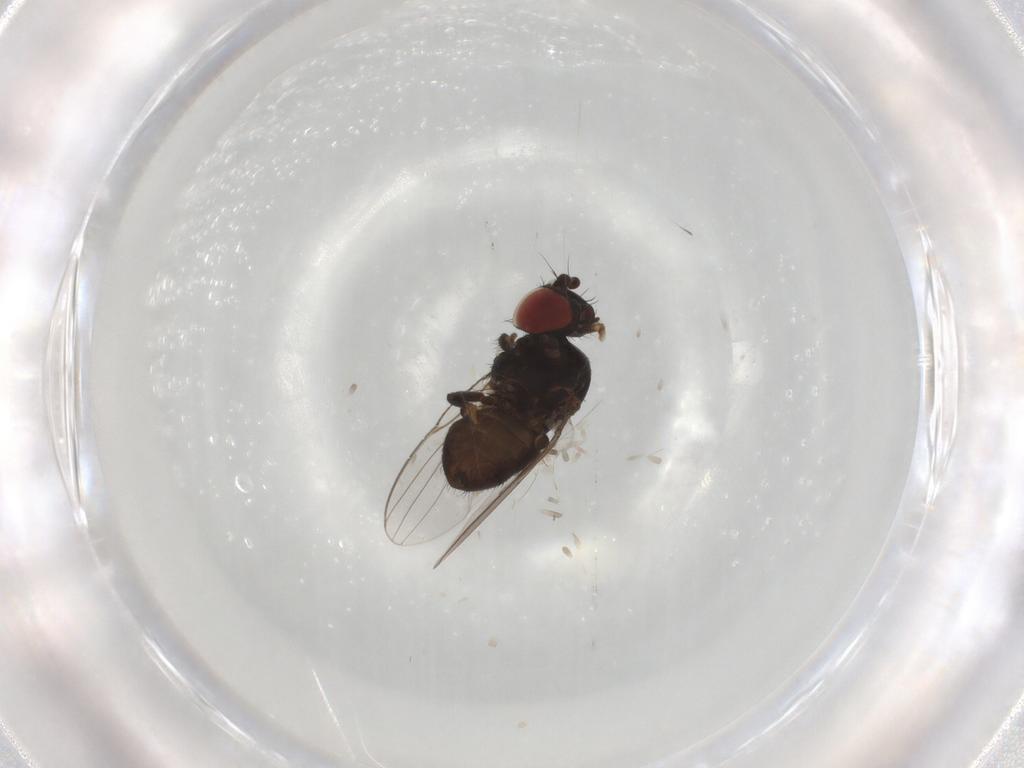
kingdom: Animalia
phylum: Arthropoda
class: Insecta
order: Diptera
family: Milichiidae
